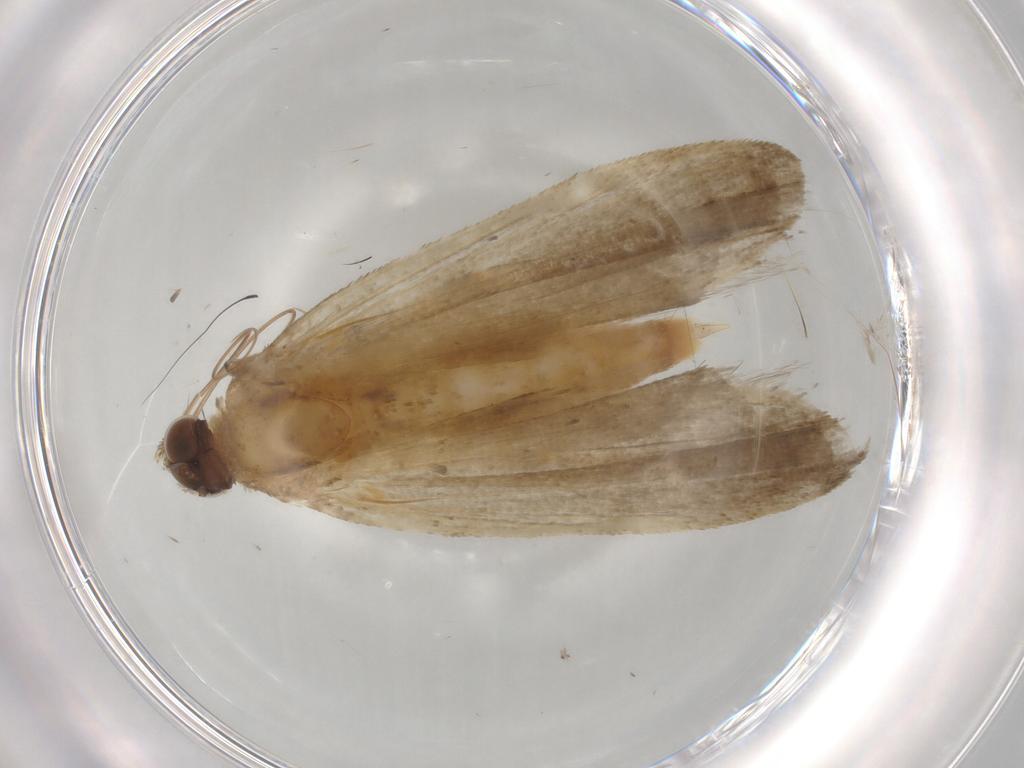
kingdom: Animalia
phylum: Arthropoda
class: Insecta
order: Lepidoptera
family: Noctuidae
